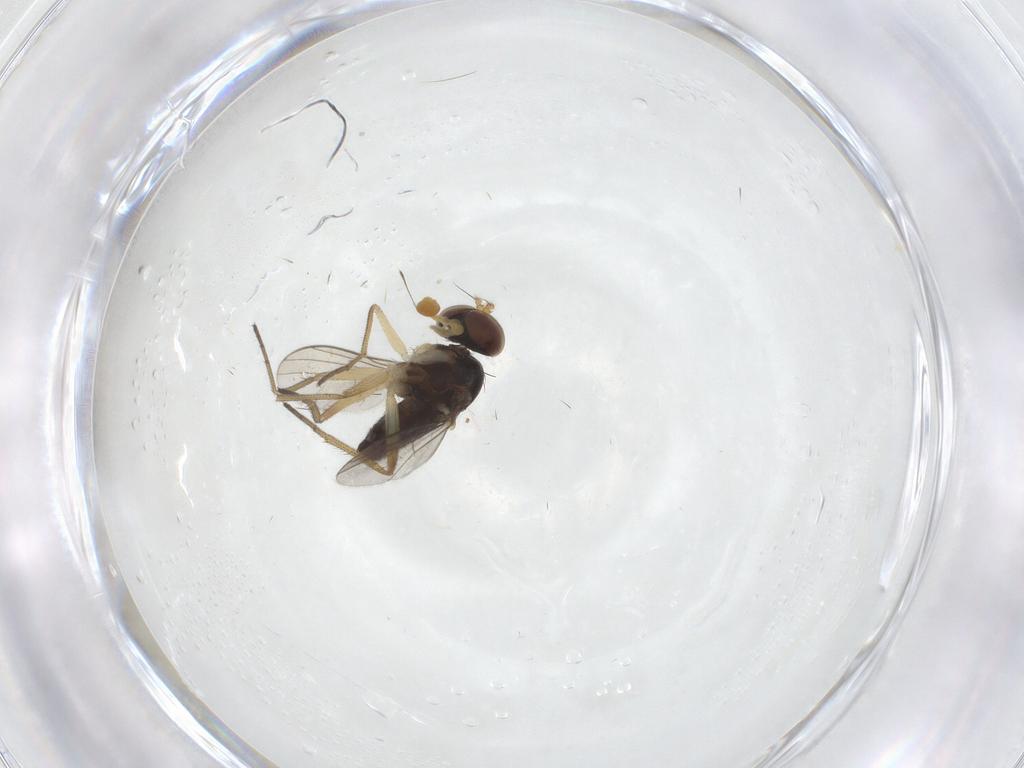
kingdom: Animalia
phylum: Arthropoda
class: Insecta
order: Diptera
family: Dolichopodidae
